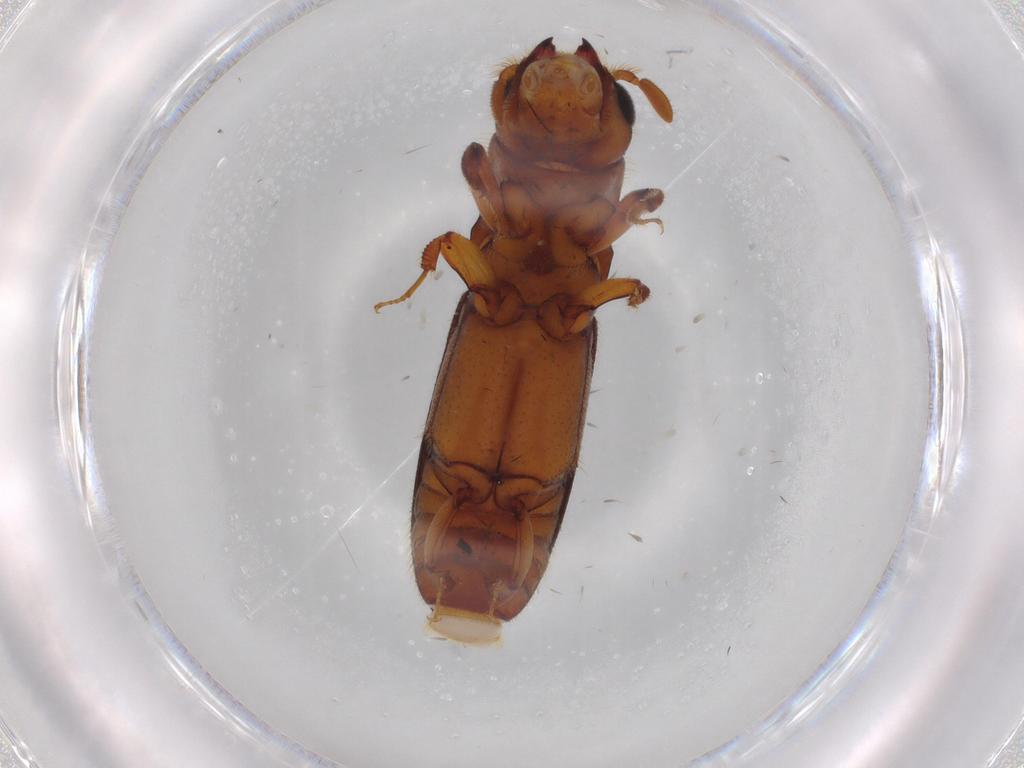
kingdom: Animalia
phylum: Arthropoda
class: Insecta
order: Coleoptera
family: Curculionidae
